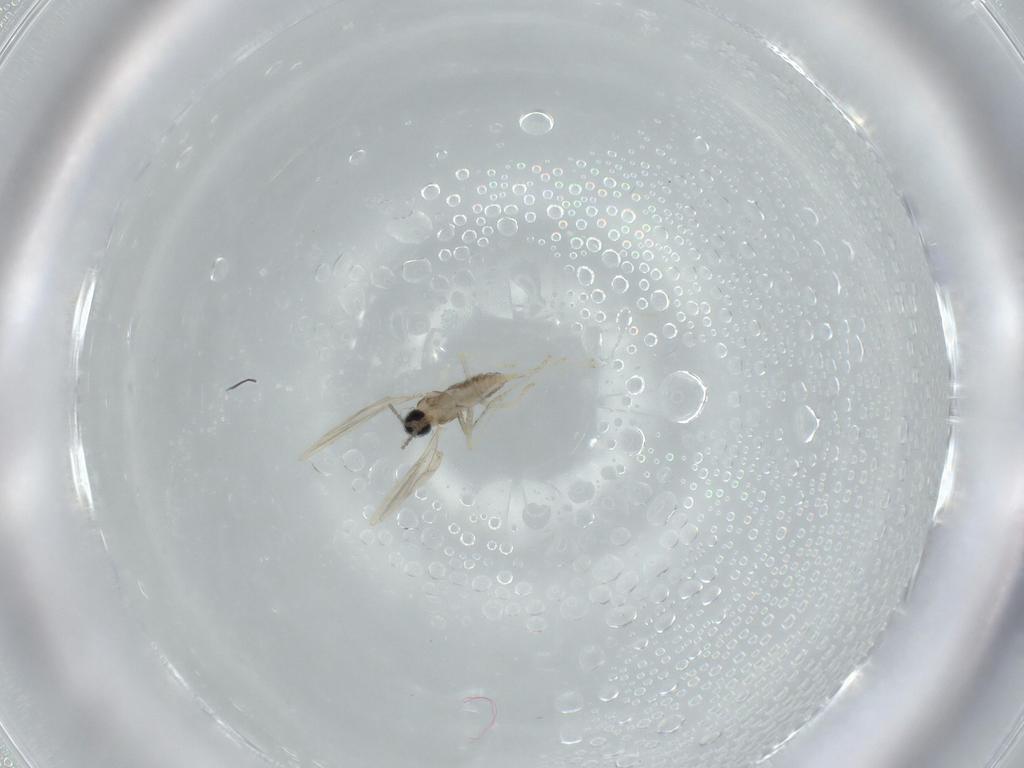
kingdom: Animalia
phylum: Arthropoda
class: Insecta
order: Diptera
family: Cecidomyiidae
